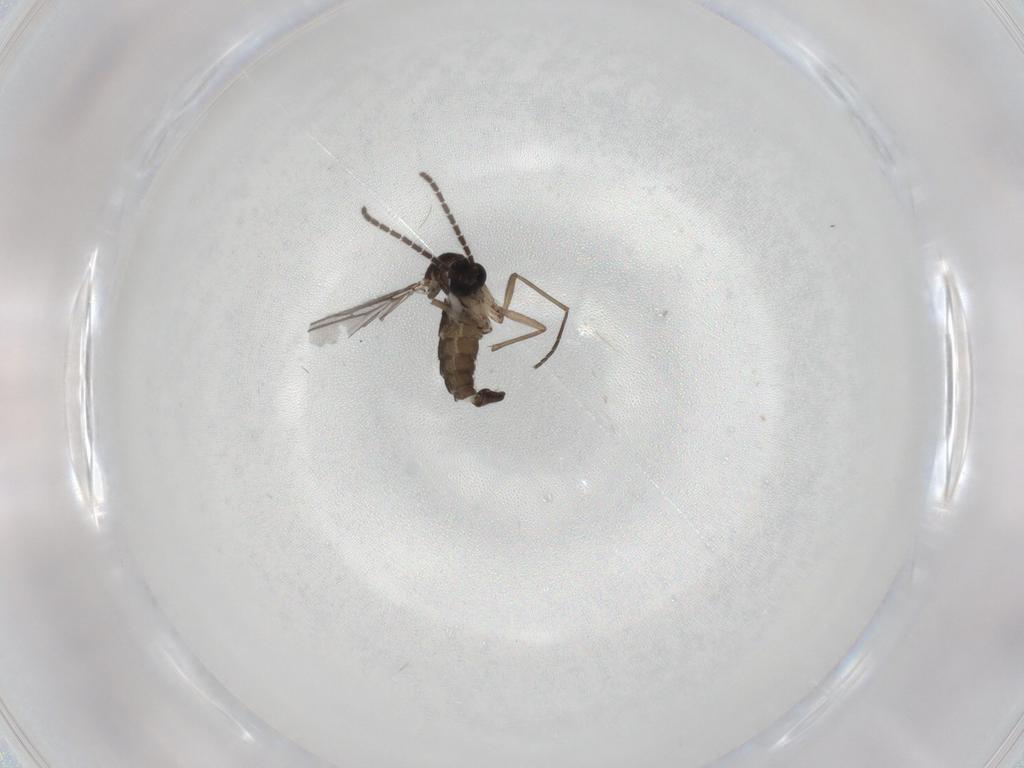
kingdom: Animalia
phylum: Arthropoda
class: Insecta
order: Diptera
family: Sciaridae
